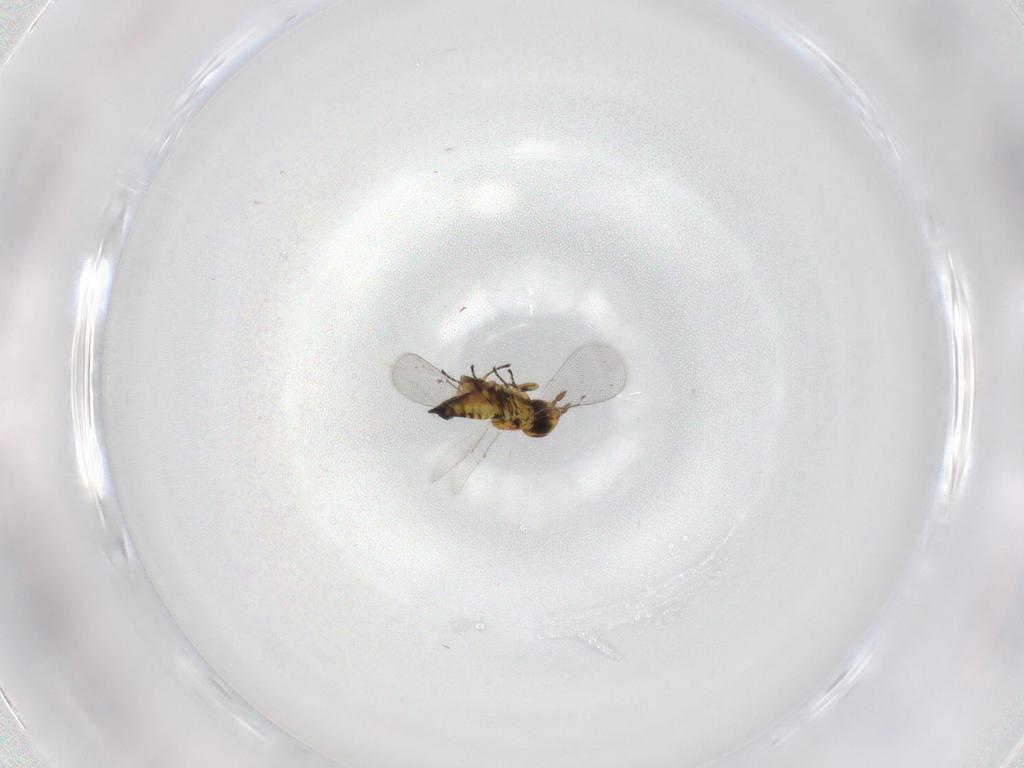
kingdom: Animalia
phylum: Arthropoda
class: Insecta
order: Hymenoptera
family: Eulophidae
